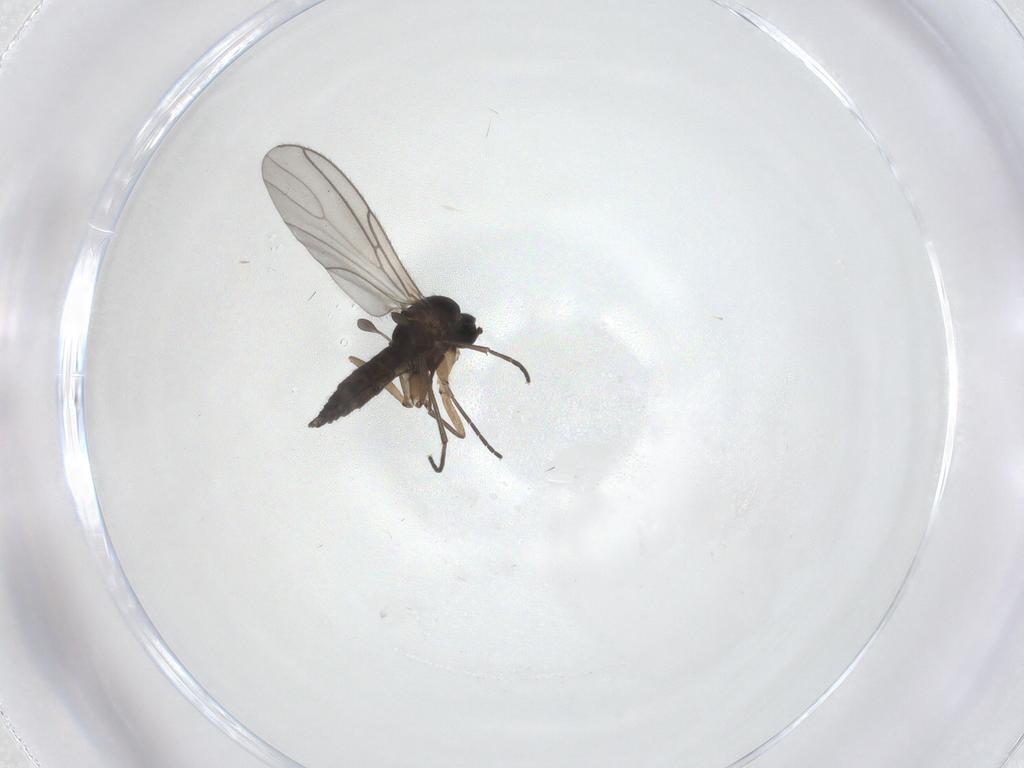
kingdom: Animalia
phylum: Arthropoda
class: Insecta
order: Diptera
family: Sciaridae
